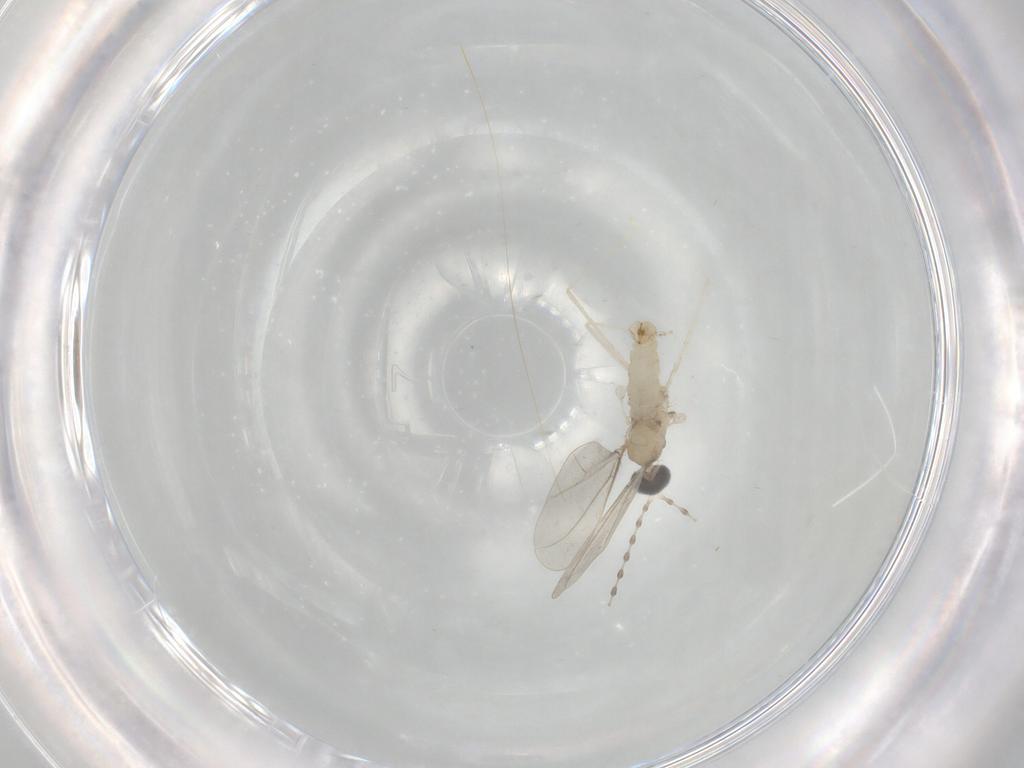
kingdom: Animalia
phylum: Arthropoda
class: Insecta
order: Diptera
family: Cecidomyiidae
